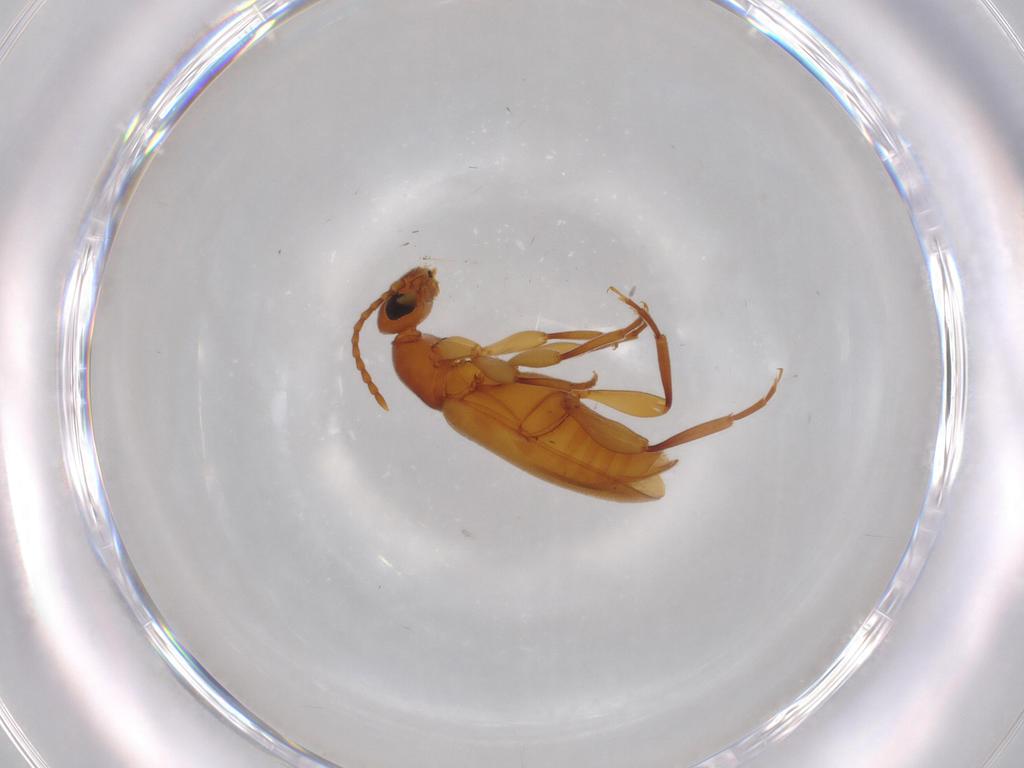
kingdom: Animalia
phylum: Arthropoda
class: Insecta
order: Coleoptera
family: Anthicidae
